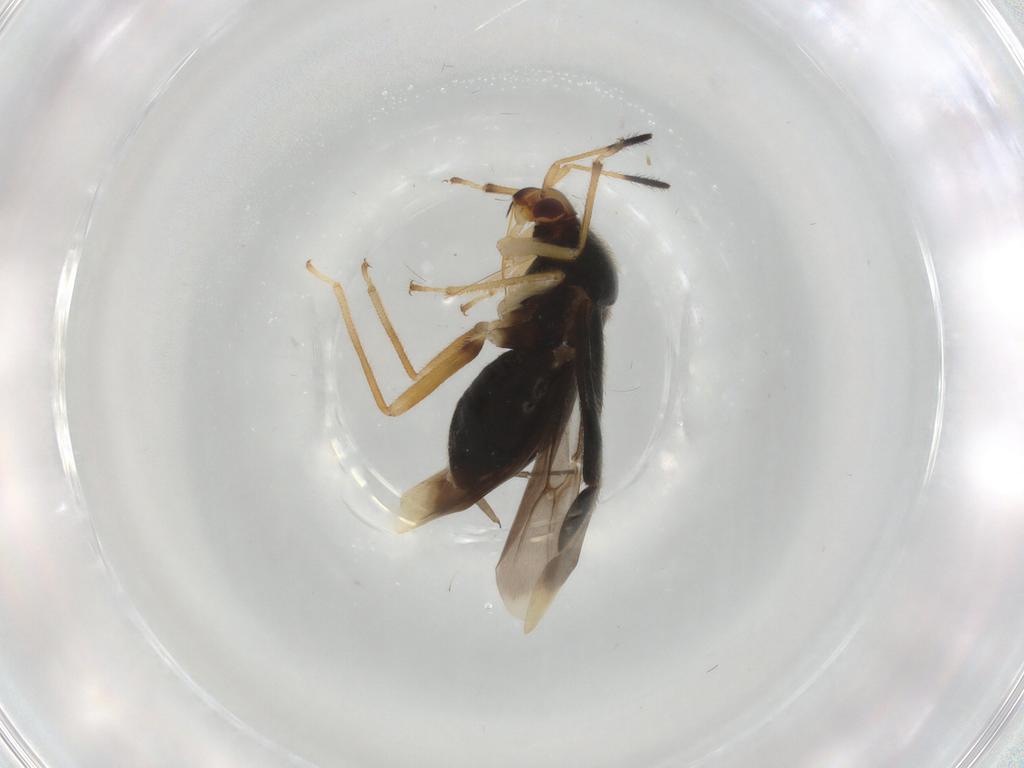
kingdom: Animalia
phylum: Arthropoda
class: Insecta
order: Hemiptera
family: Miridae
